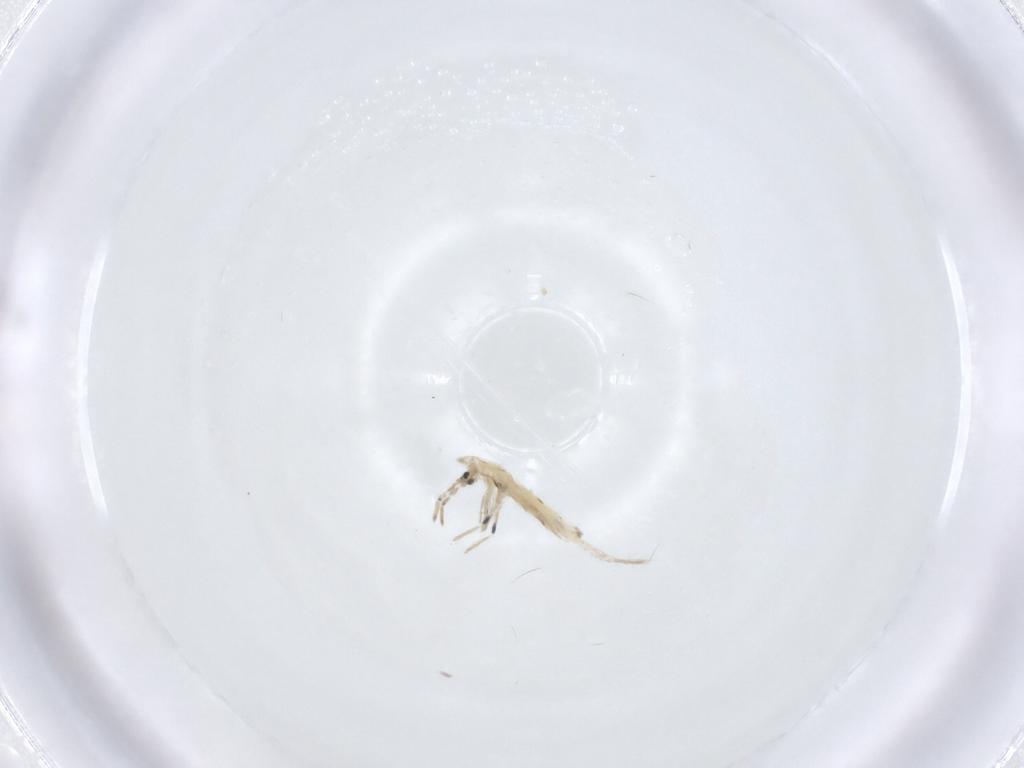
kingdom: Animalia
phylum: Arthropoda
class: Collembola
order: Entomobryomorpha
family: Entomobryidae
